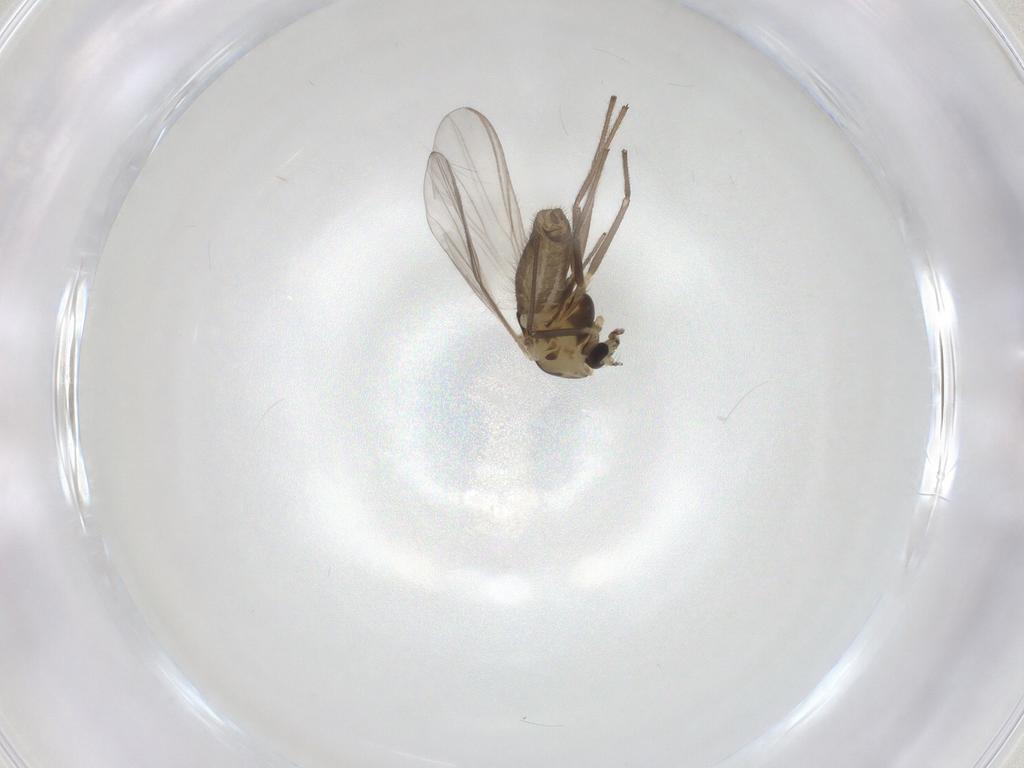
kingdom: Animalia
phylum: Arthropoda
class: Insecta
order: Diptera
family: Chironomidae
